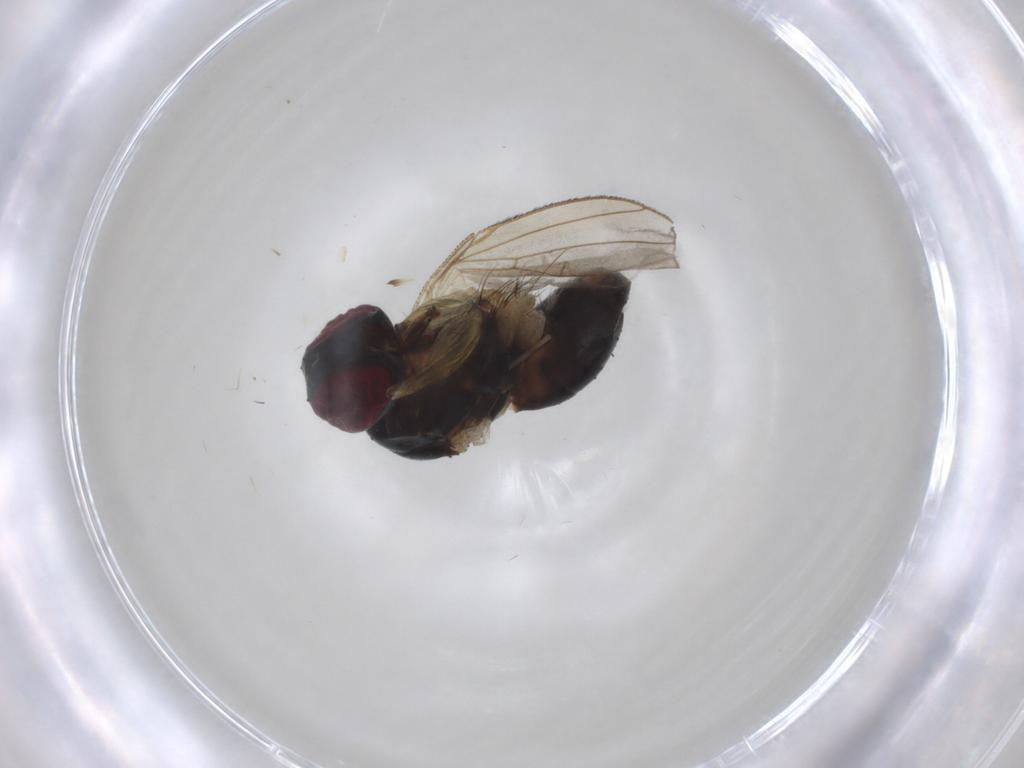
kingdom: Animalia
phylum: Arthropoda
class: Insecta
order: Diptera
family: Muscidae
